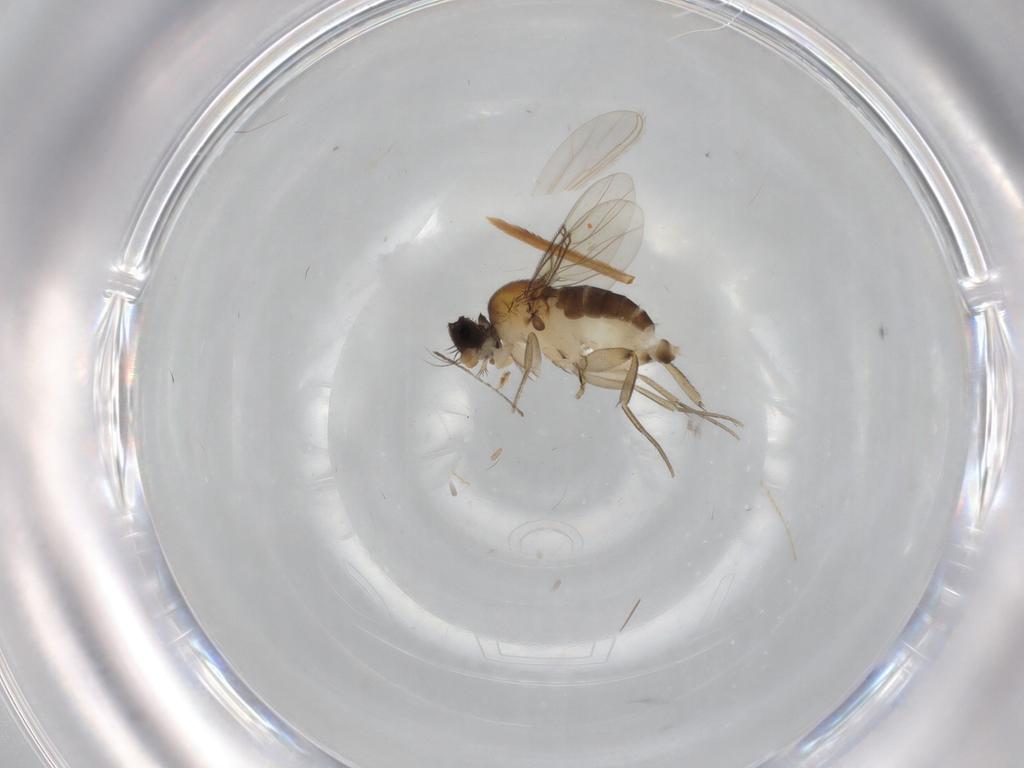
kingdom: Animalia
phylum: Arthropoda
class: Insecta
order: Diptera
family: Phoridae
